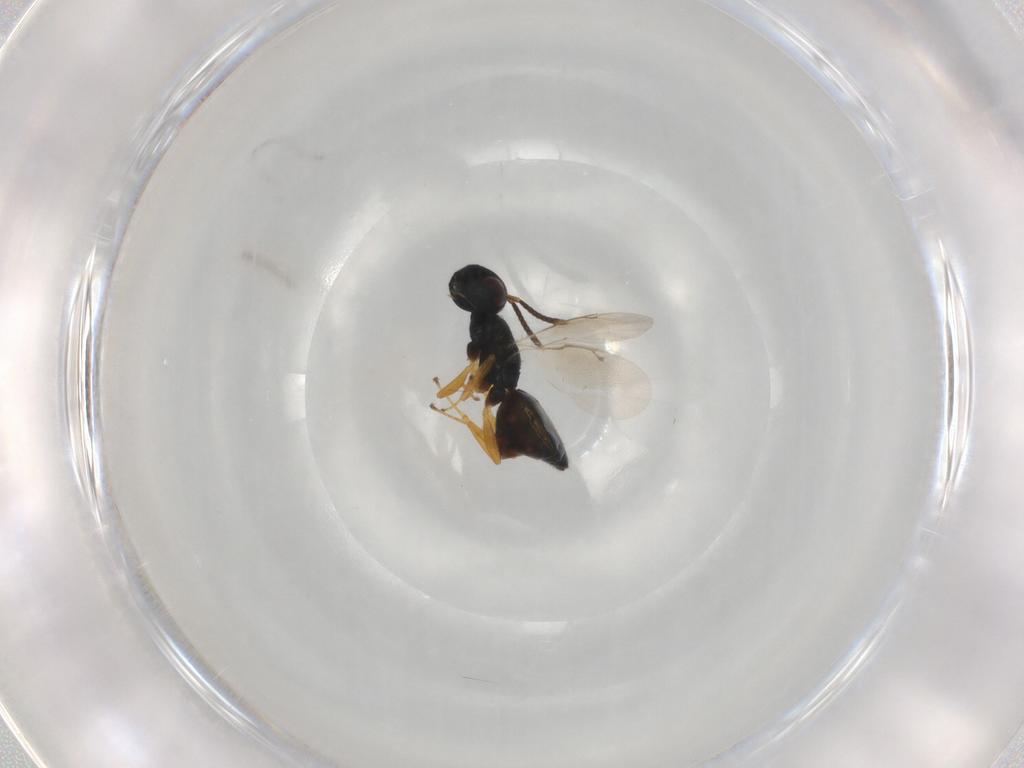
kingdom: Animalia
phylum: Arthropoda
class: Insecta
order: Hymenoptera
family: Pteromalidae
